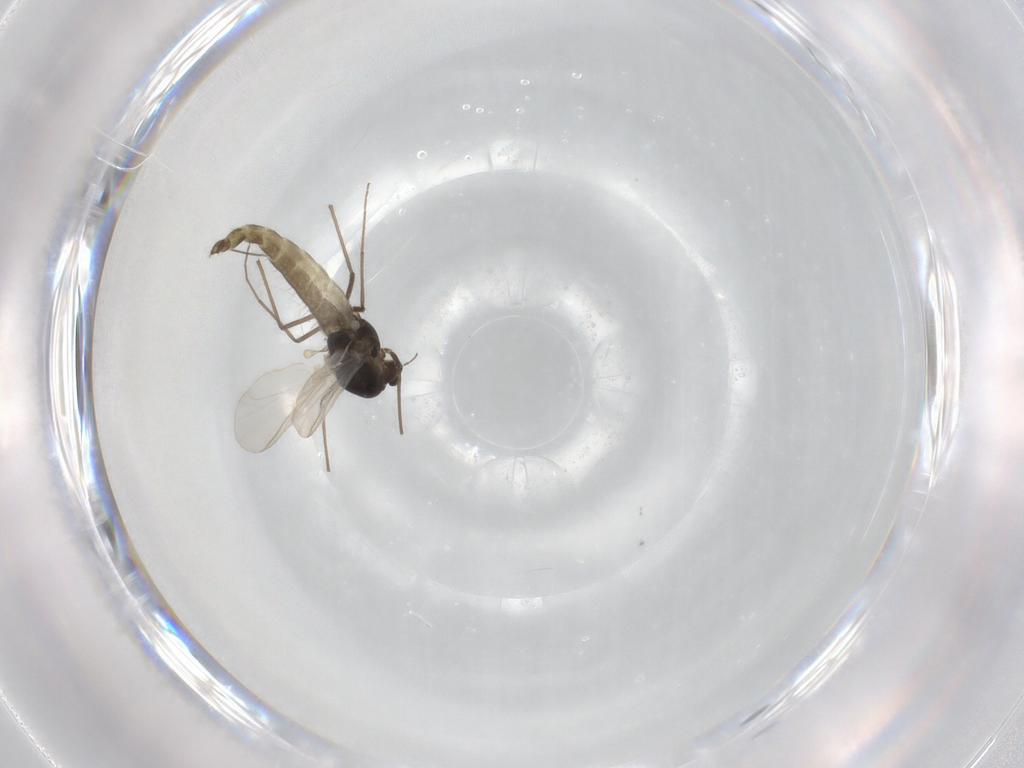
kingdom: Animalia
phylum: Arthropoda
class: Insecta
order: Diptera
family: Chironomidae
